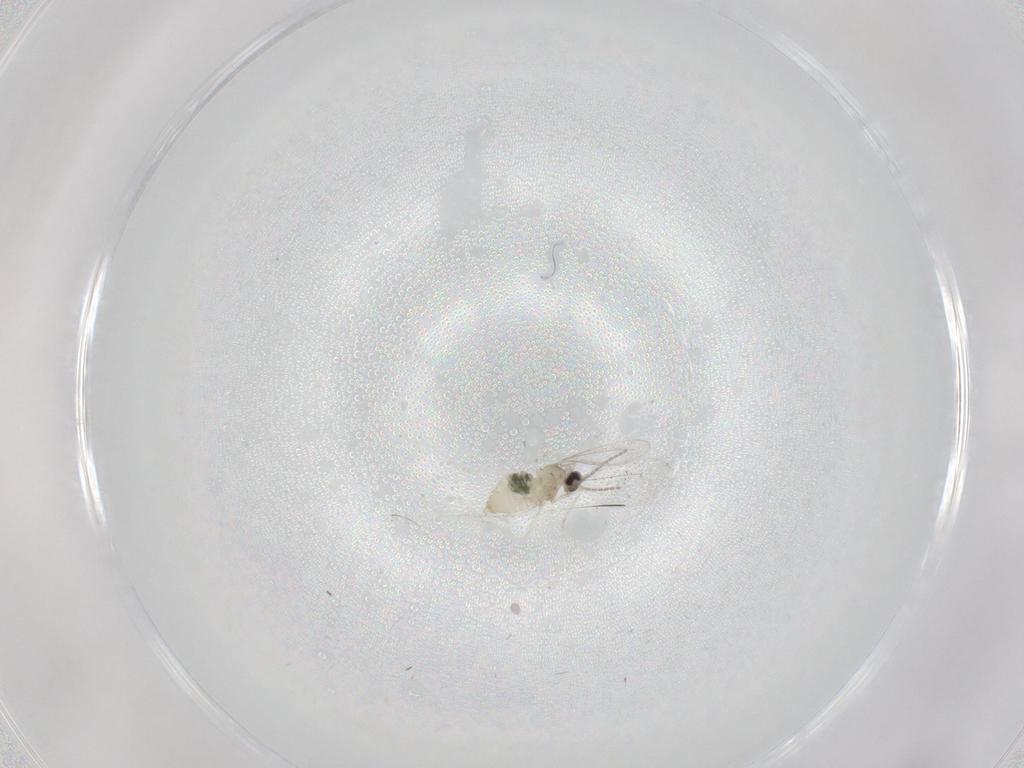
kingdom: Animalia
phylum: Arthropoda
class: Insecta
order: Diptera
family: Cecidomyiidae
